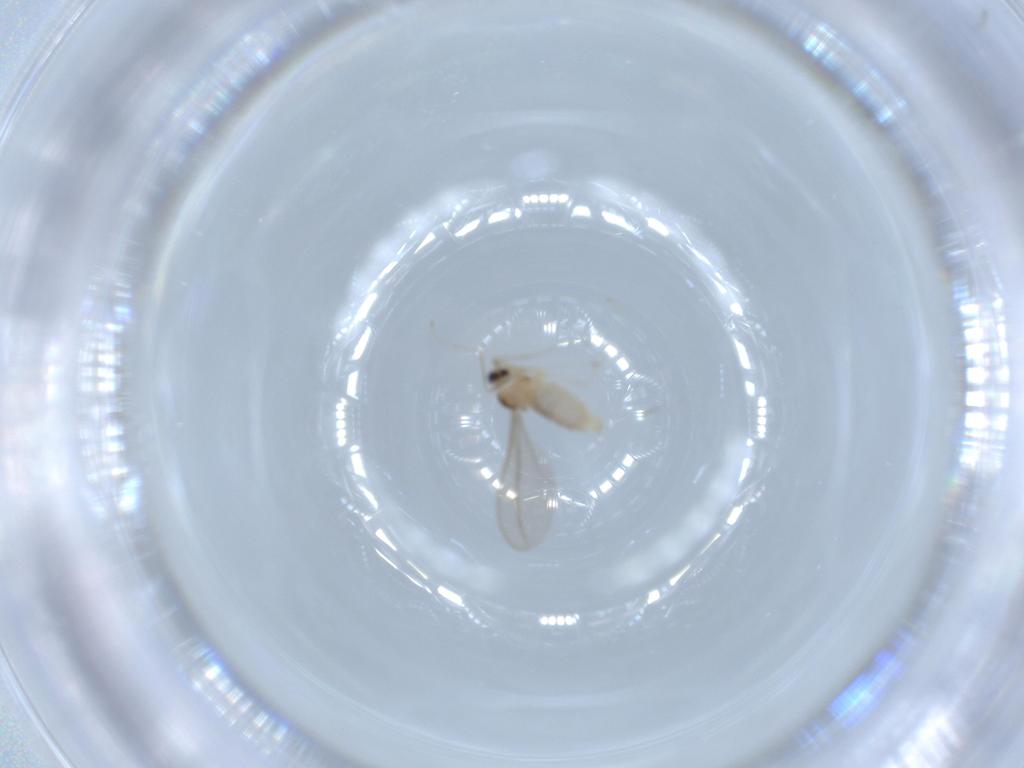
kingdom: Animalia
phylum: Arthropoda
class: Insecta
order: Diptera
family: Cecidomyiidae
